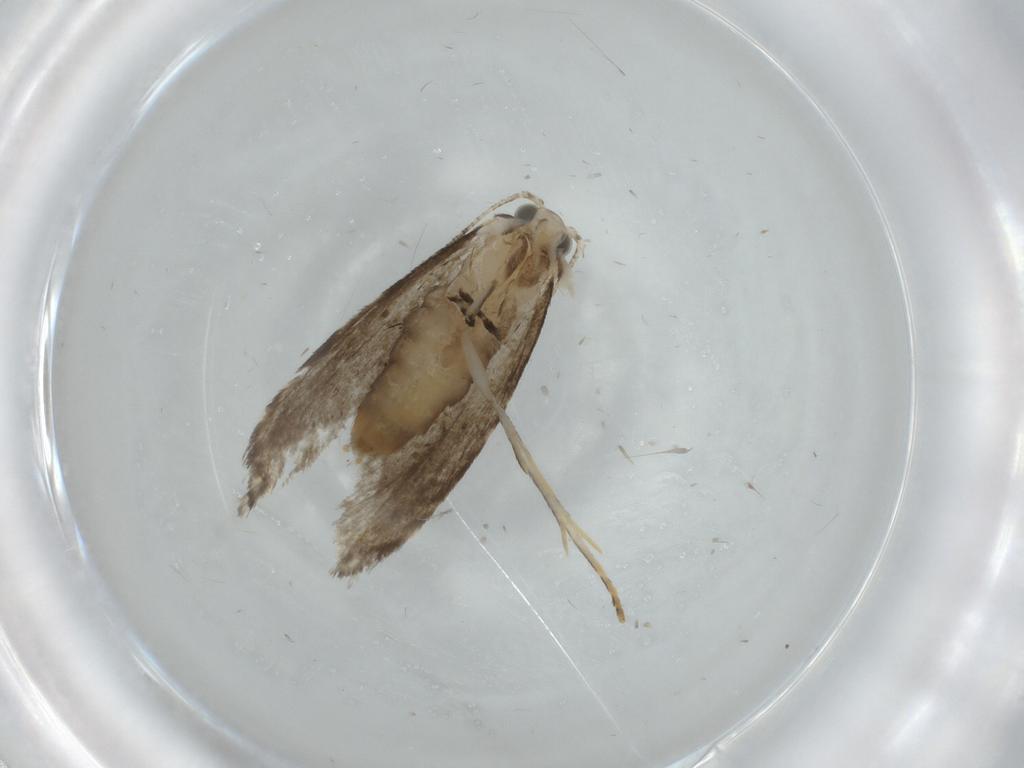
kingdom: Animalia
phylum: Arthropoda
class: Insecta
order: Lepidoptera
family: Tineidae
